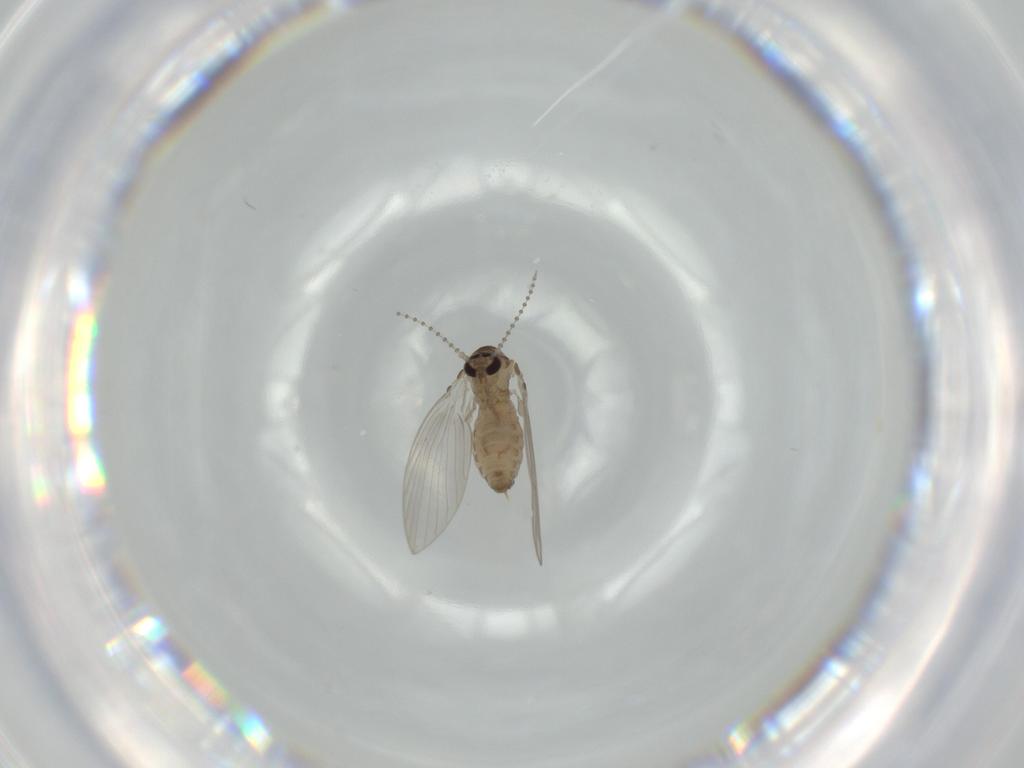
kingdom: Animalia
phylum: Arthropoda
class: Insecta
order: Diptera
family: Psychodidae
